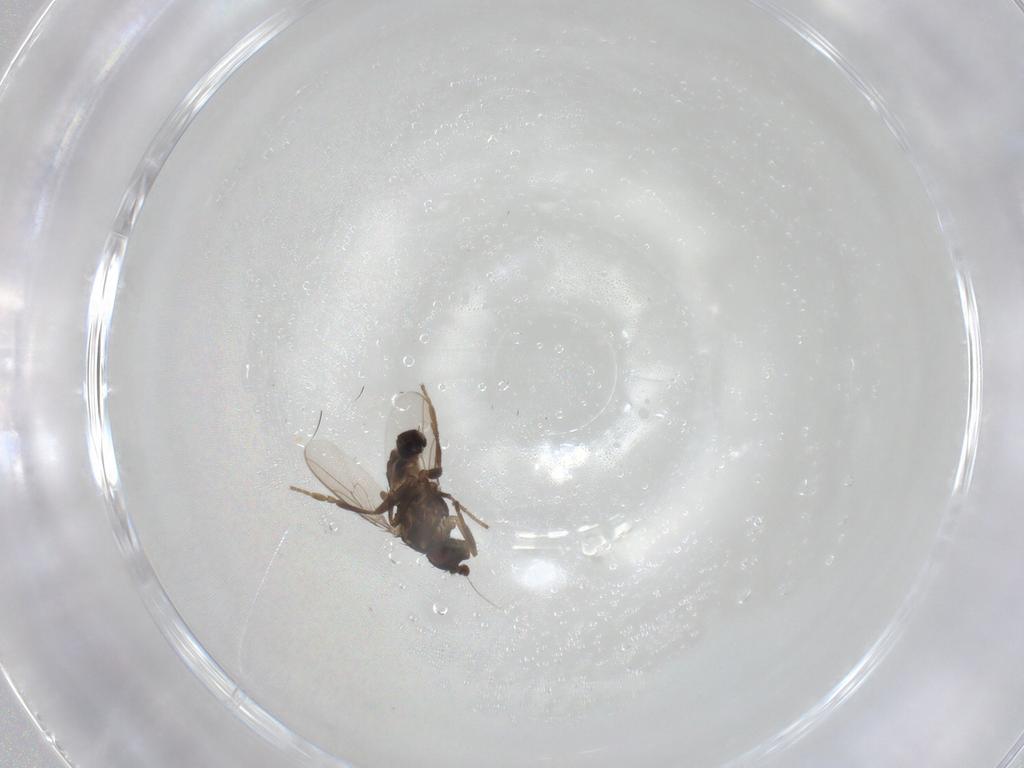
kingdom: Animalia
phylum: Arthropoda
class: Insecta
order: Diptera
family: Sphaeroceridae
